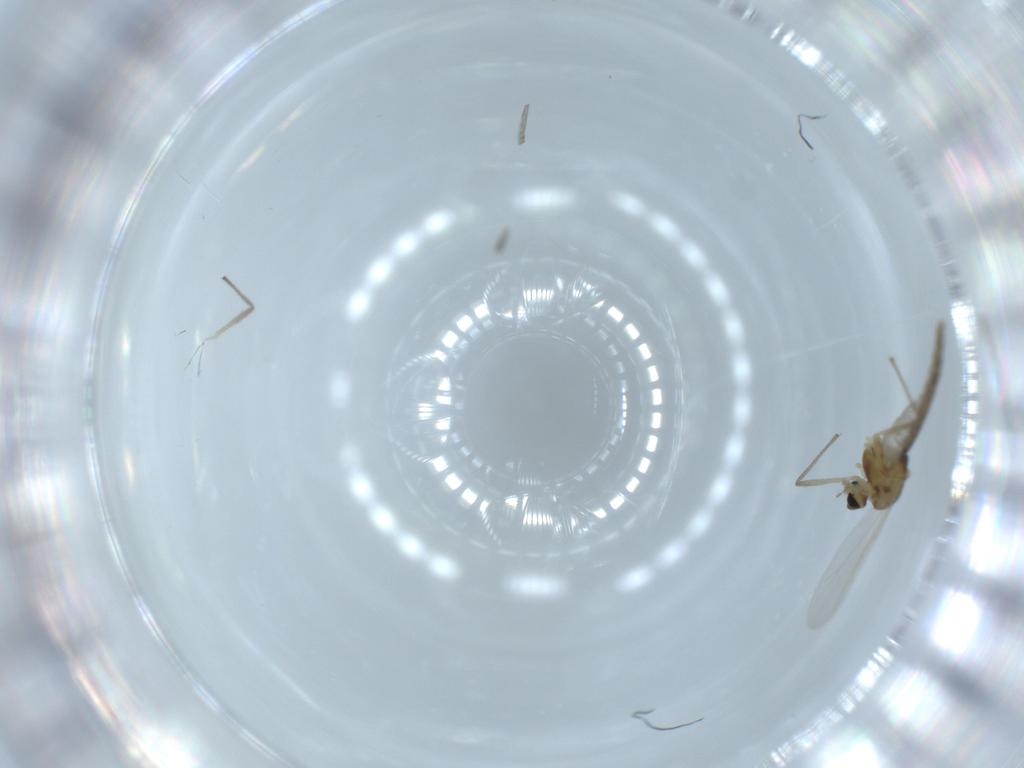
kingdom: Animalia
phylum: Arthropoda
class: Insecta
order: Diptera
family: Chironomidae
